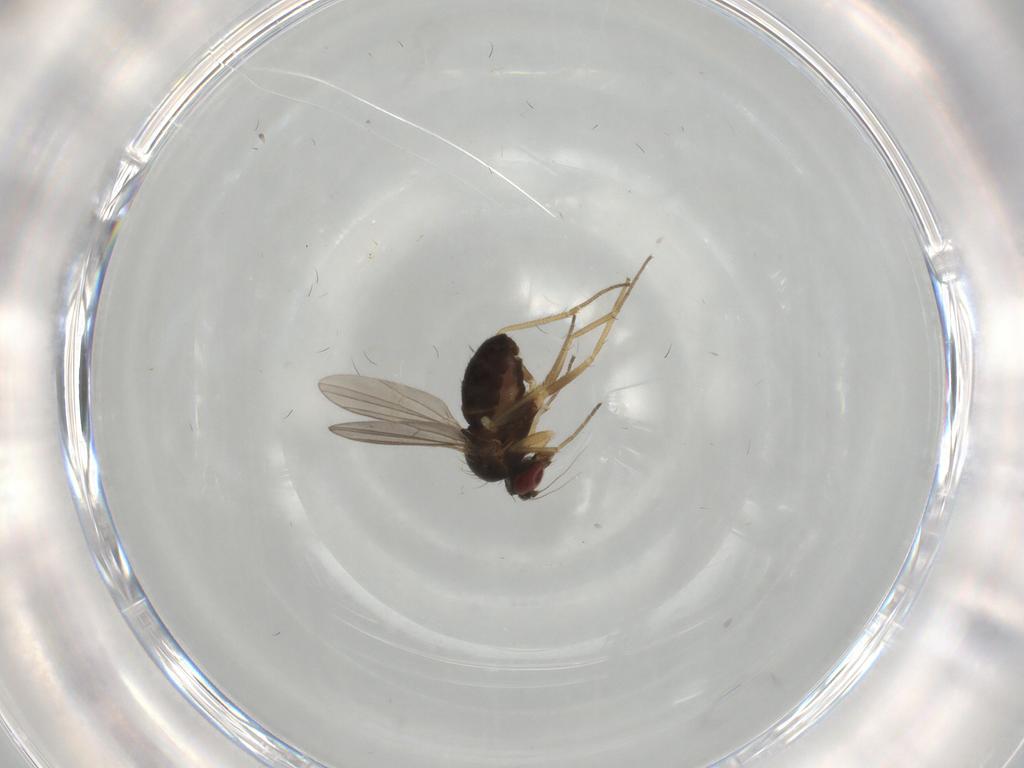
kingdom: Animalia
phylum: Arthropoda
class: Insecta
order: Diptera
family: Dolichopodidae
